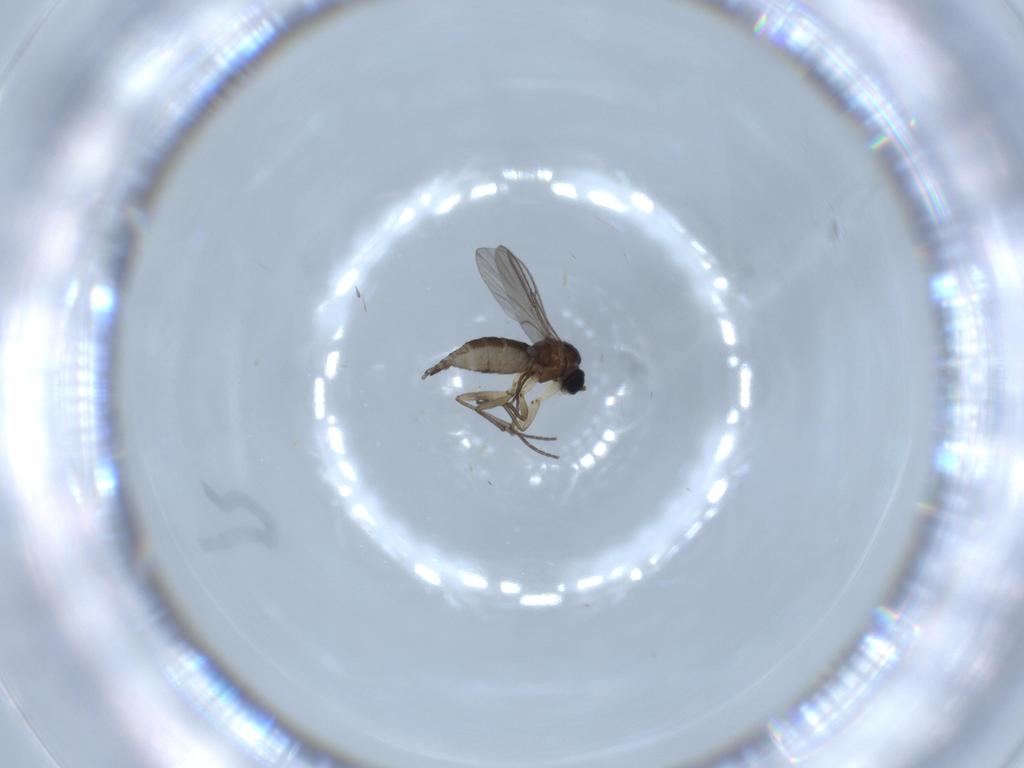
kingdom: Animalia
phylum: Arthropoda
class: Insecta
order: Diptera
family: Sciaridae
